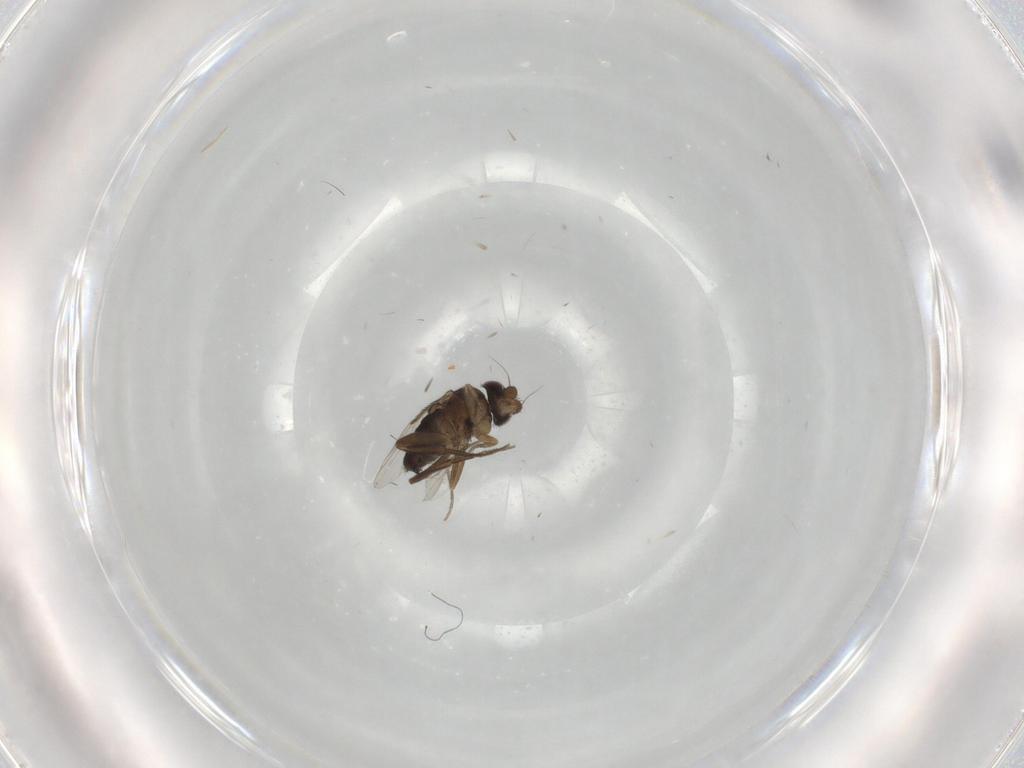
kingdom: Animalia
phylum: Arthropoda
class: Insecta
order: Diptera
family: Phoridae
